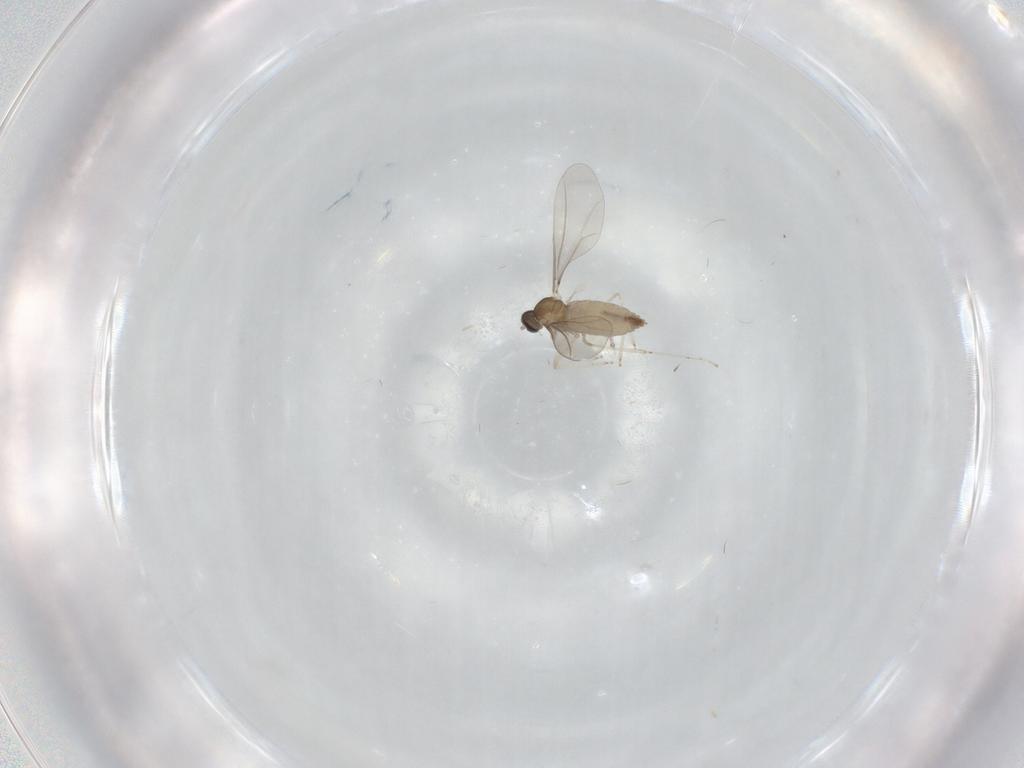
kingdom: Animalia
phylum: Arthropoda
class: Insecta
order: Diptera
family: Cecidomyiidae
